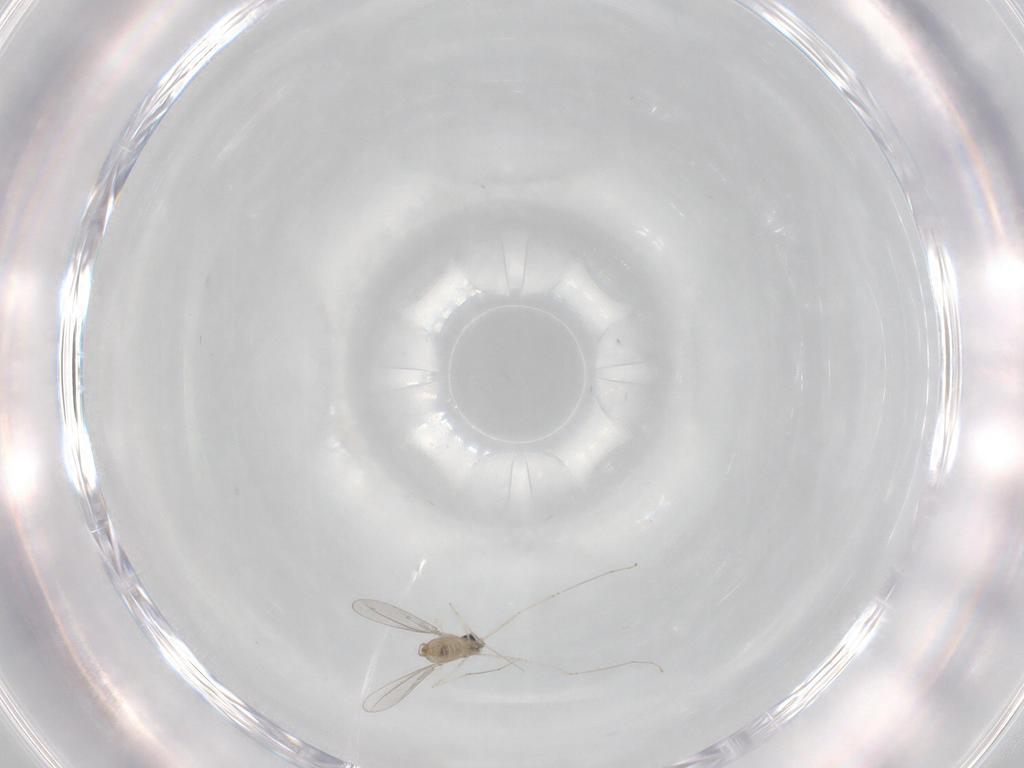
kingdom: Animalia
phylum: Arthropoda
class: Insecta
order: Diptera
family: Cecidomyiidae
